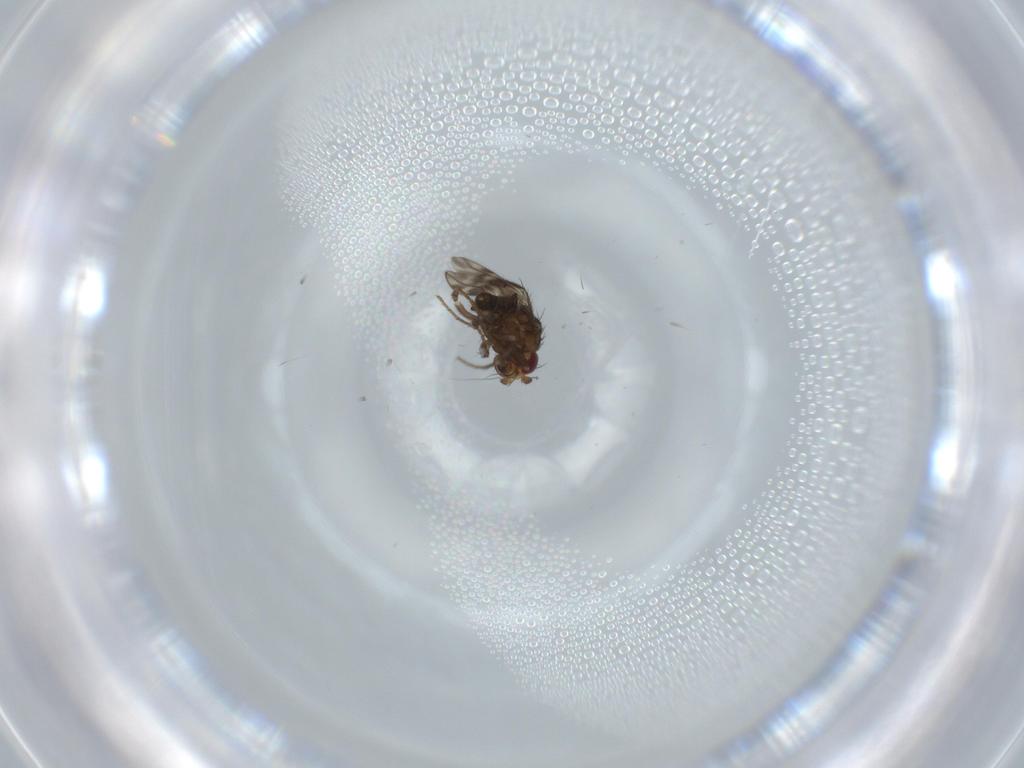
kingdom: Animalia
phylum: Arthropoda
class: Insecta
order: Diptera
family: Sphaeroceridae
